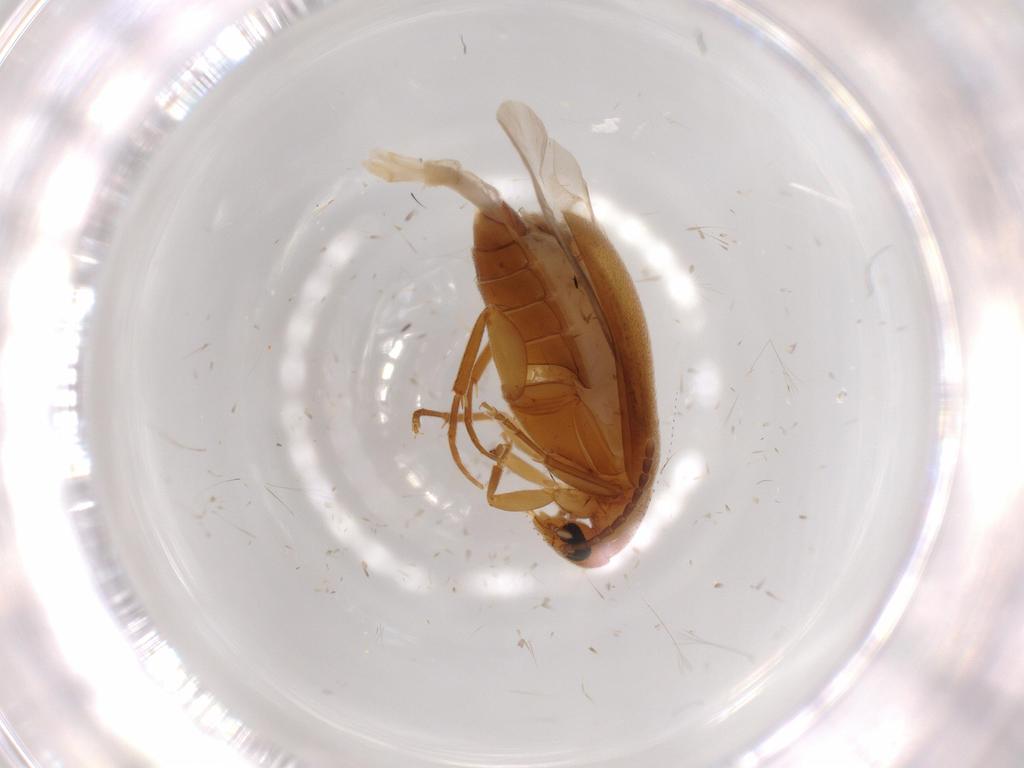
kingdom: Animalia
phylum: Arthropoda
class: Insecta
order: Coleoptera
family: Scraptiidae
